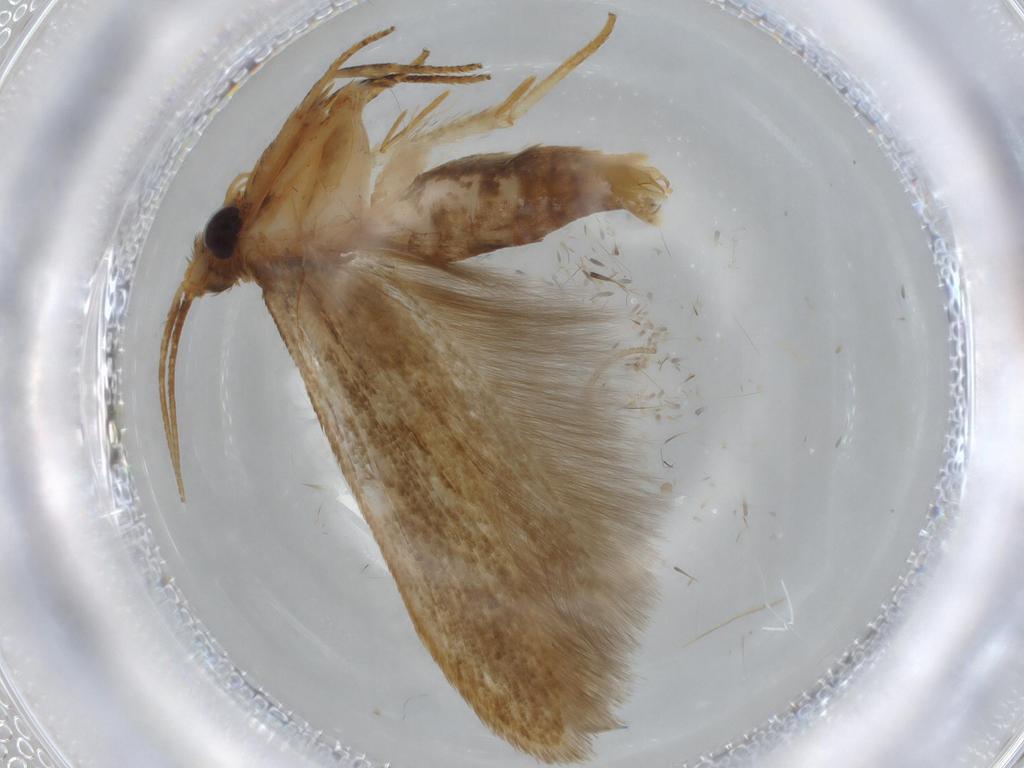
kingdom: Animalia
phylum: Arthropoda
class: Insecta
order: Lepidoptera
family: Coleophoridae
